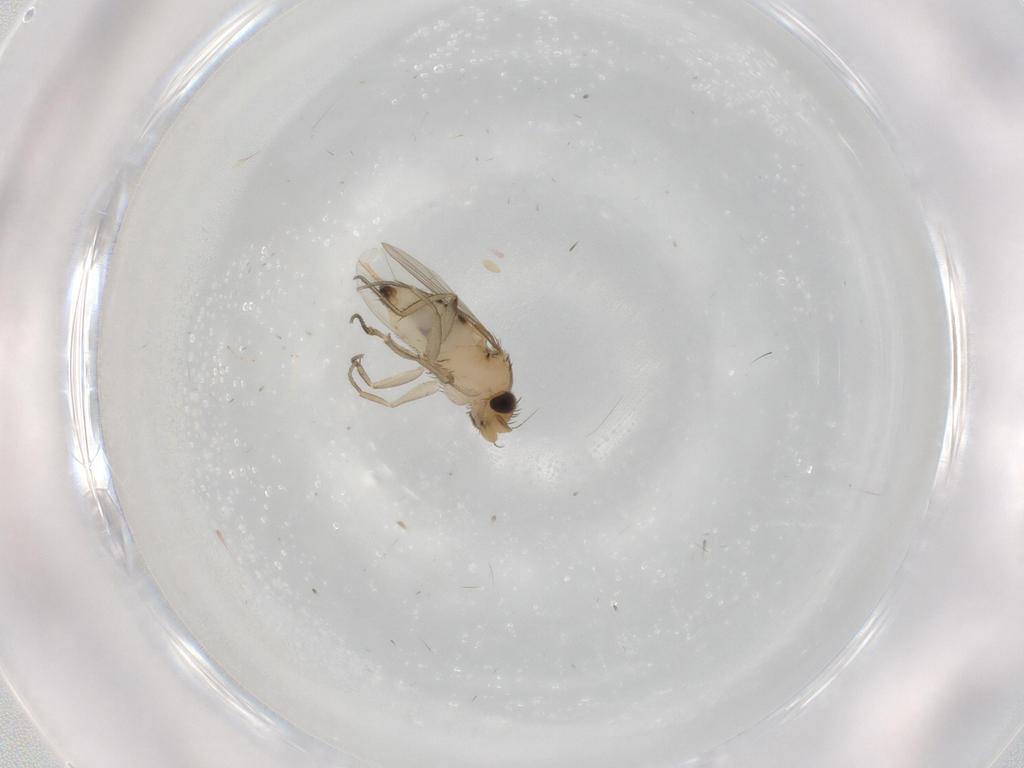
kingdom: Animalia
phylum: Arthropoda
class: Insecta
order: Diptera
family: Phoridae
